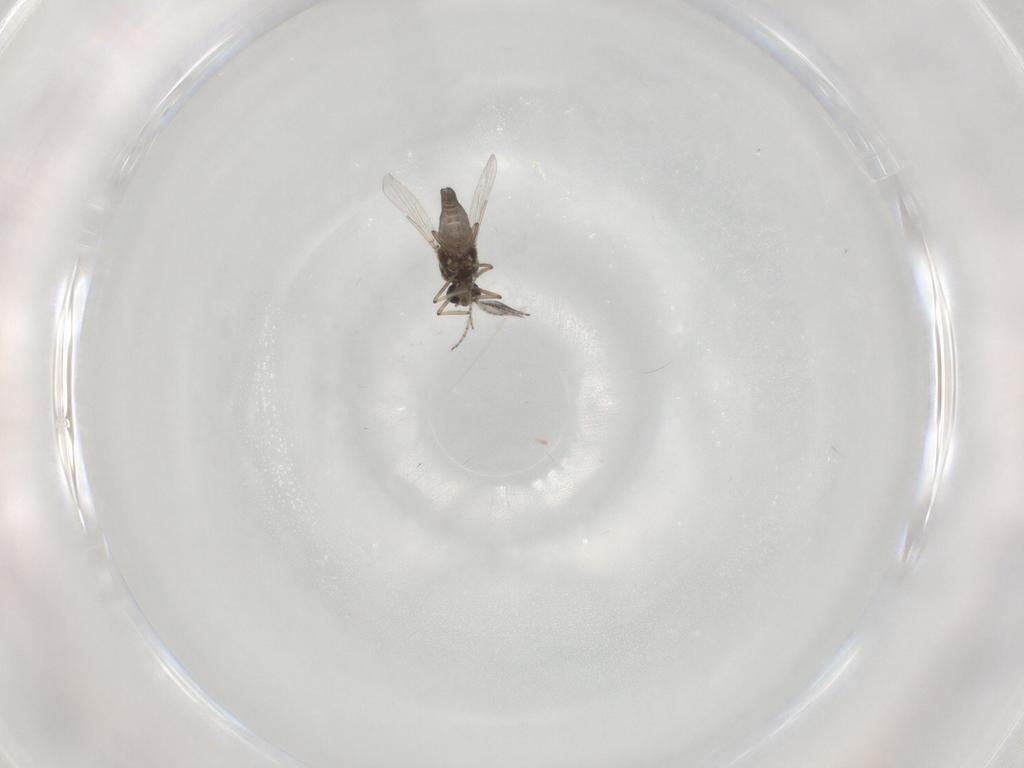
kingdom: Animalia
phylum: Arthropoda
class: Insecta
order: Diptera
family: Ceratopogonidae
